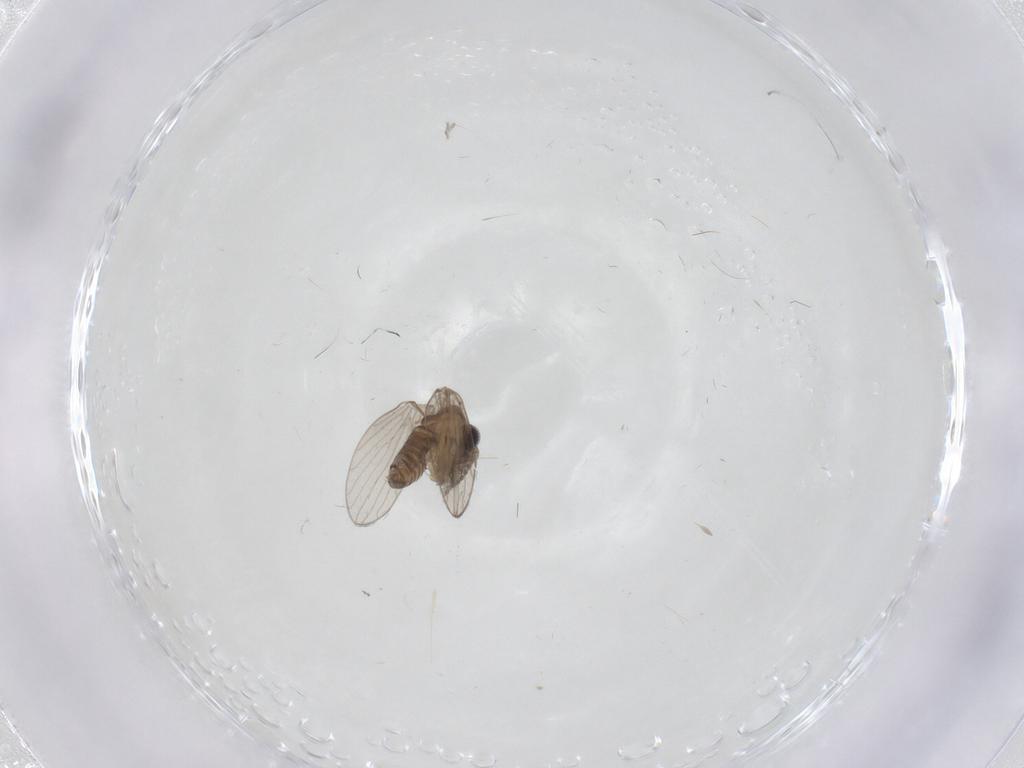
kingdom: Animalia
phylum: Arthropoda
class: Insecta
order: Diptera
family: Psychodidae
